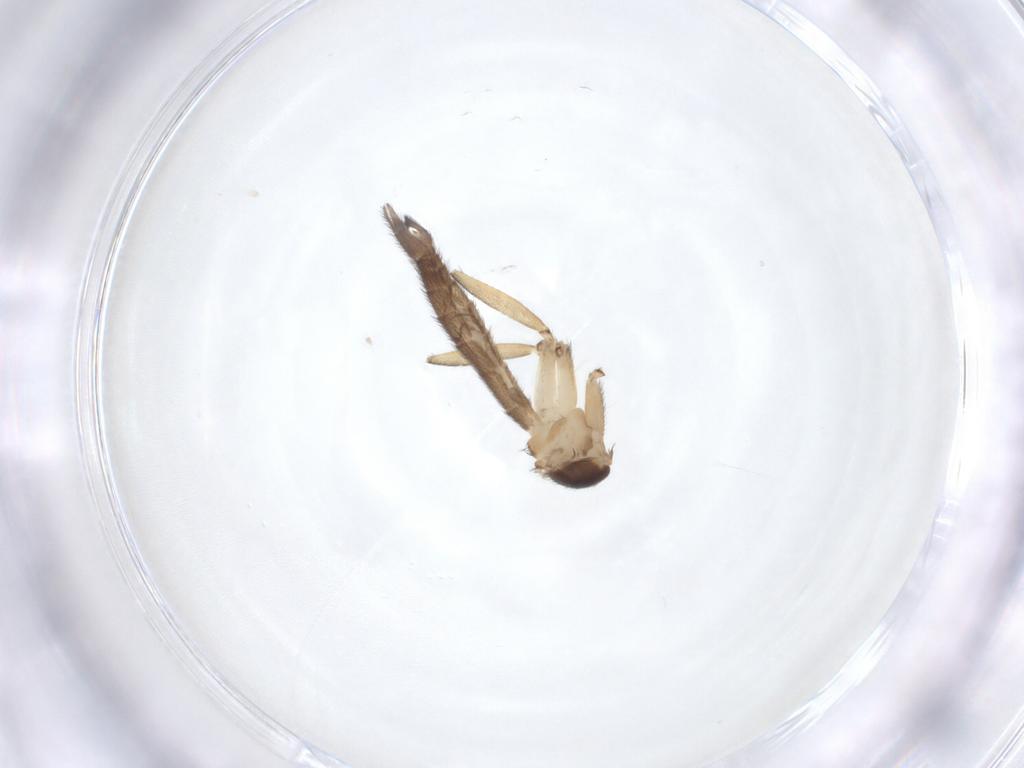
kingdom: Animalia
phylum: Arthropoda
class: Insecta
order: Diptera
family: Keroplatidae
